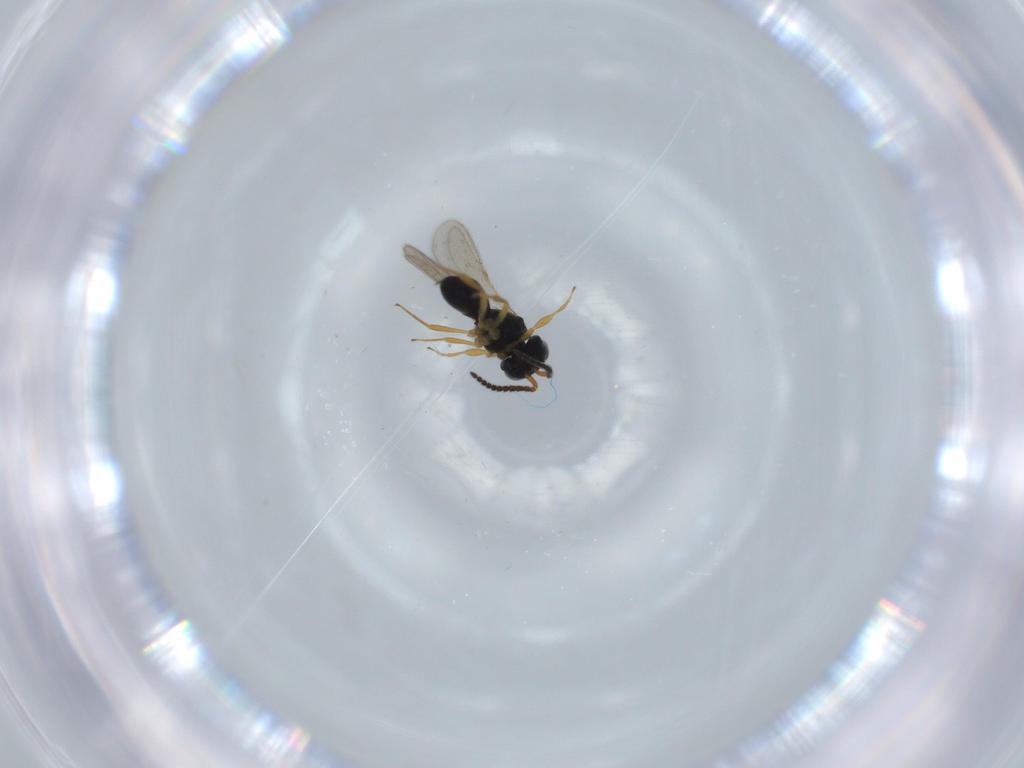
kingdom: Animalia
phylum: Arthropoda
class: Insecta
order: Hymenoptera
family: Scelionidae
